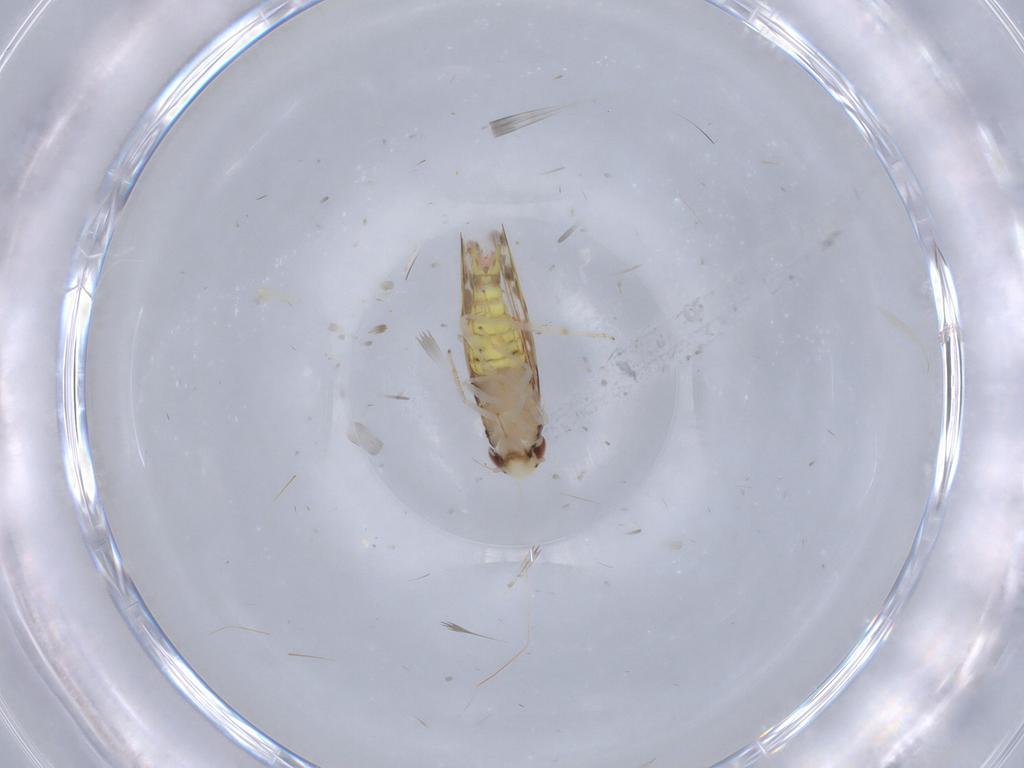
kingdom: Animalia
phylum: Arthropoda
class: Insecta
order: Hemiptera
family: Cicadellidae
